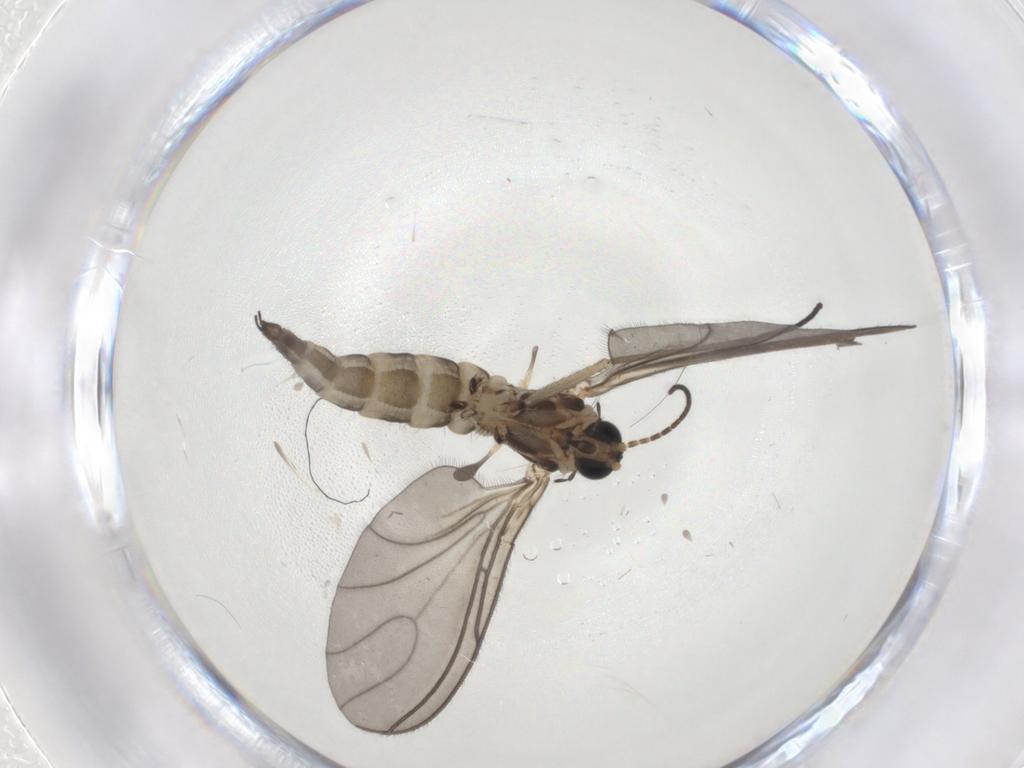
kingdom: Animalia
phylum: Arthropoda
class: Insecta
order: Diptera
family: Sciaridae
